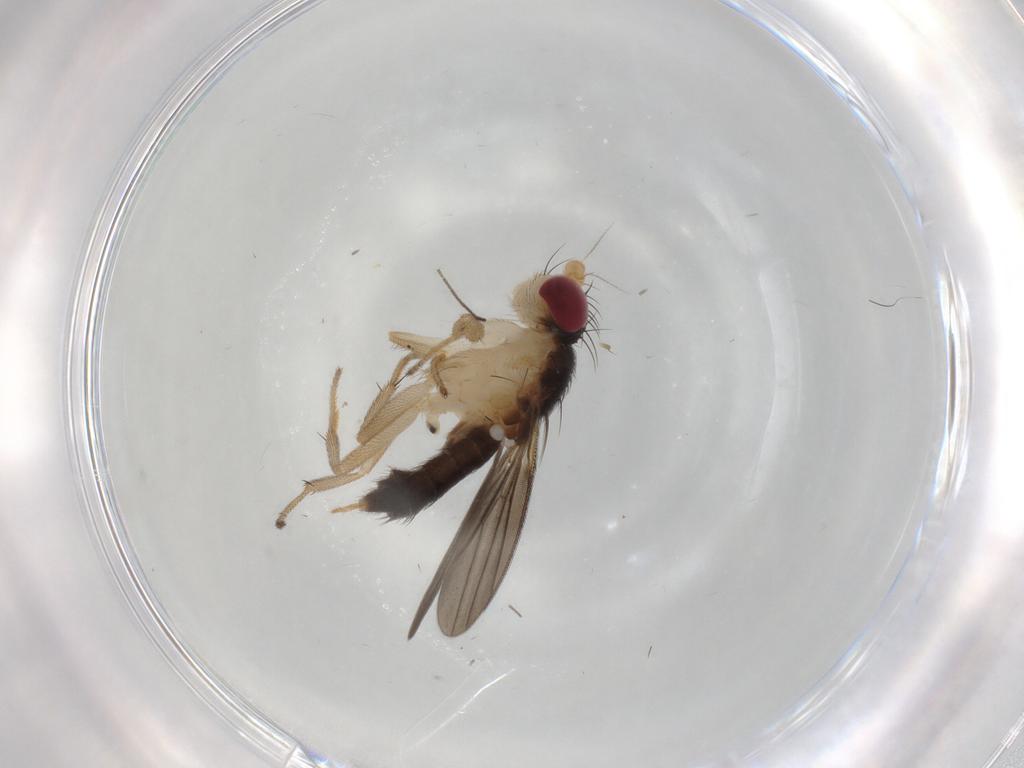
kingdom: Animalia
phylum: Arthropoda
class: Insecta
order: Diptera
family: Chironomidae
